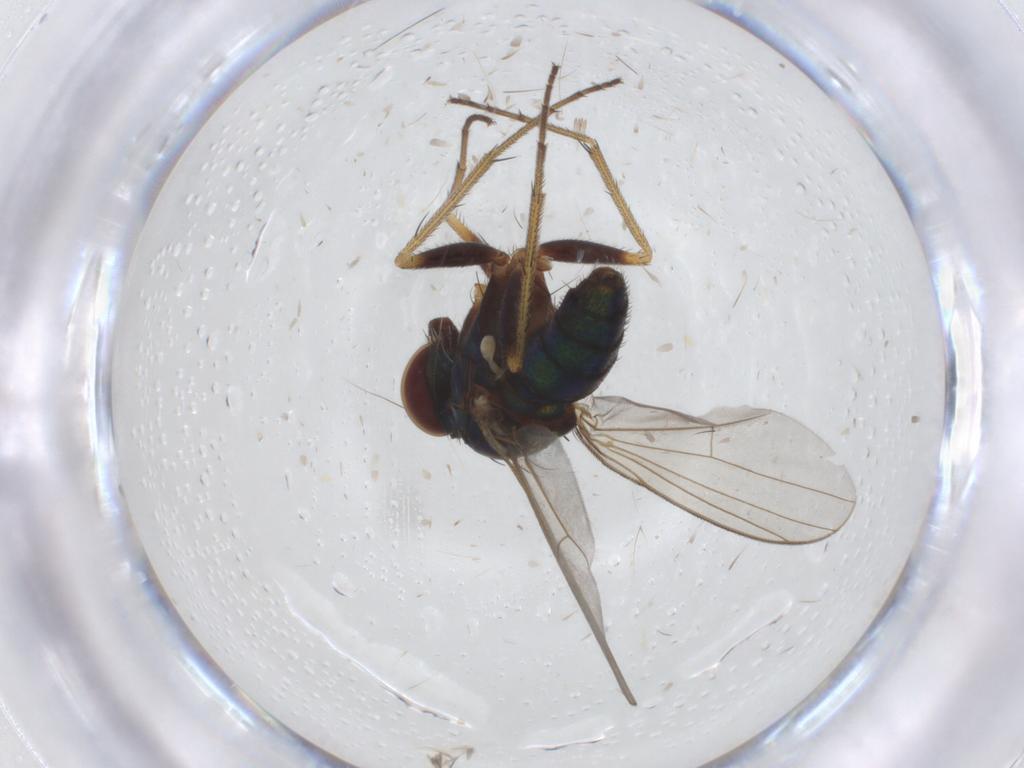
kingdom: Animalia
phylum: Arthropoda
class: Insecta
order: Diptera
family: Dolichopodidae
